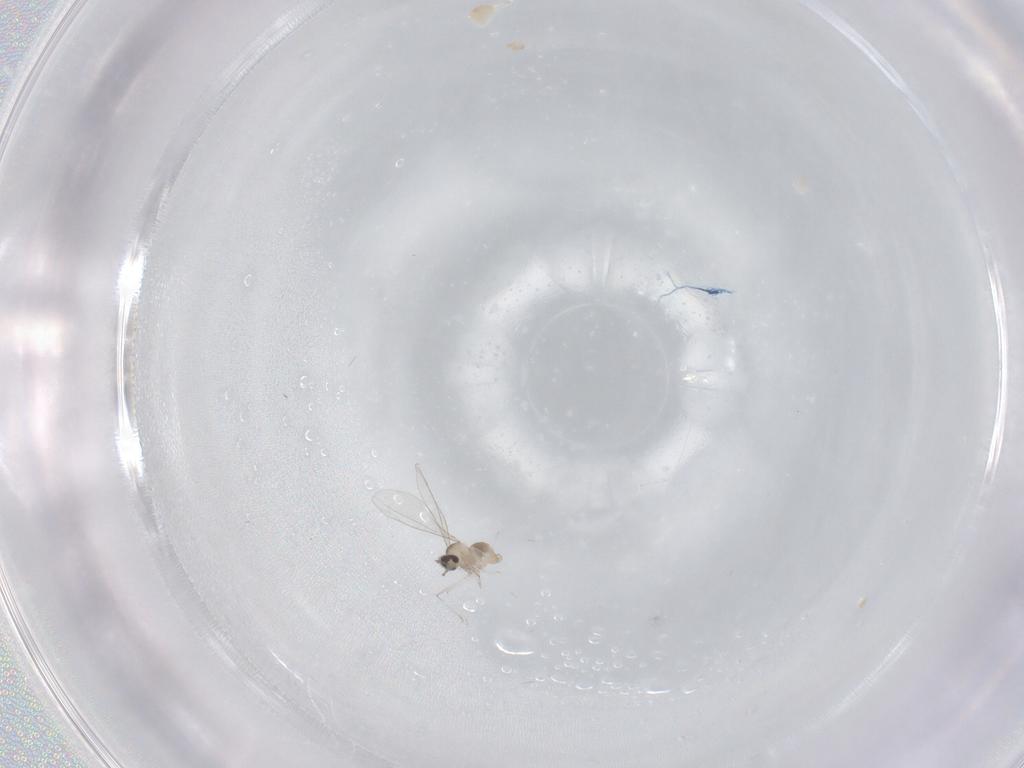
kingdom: Animalia
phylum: Arthropoda
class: Insecta
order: Diptera
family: Cecidomyiidae
